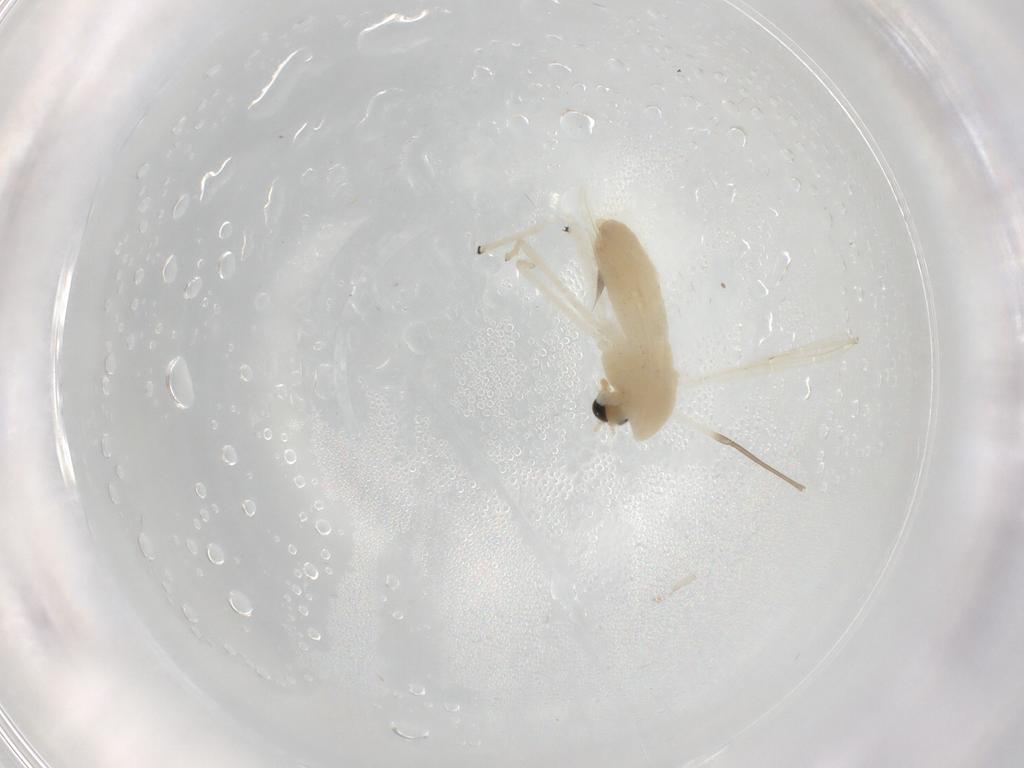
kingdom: Animalia
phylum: Arthropoda
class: Insecta
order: Diptera
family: Chironomidae
